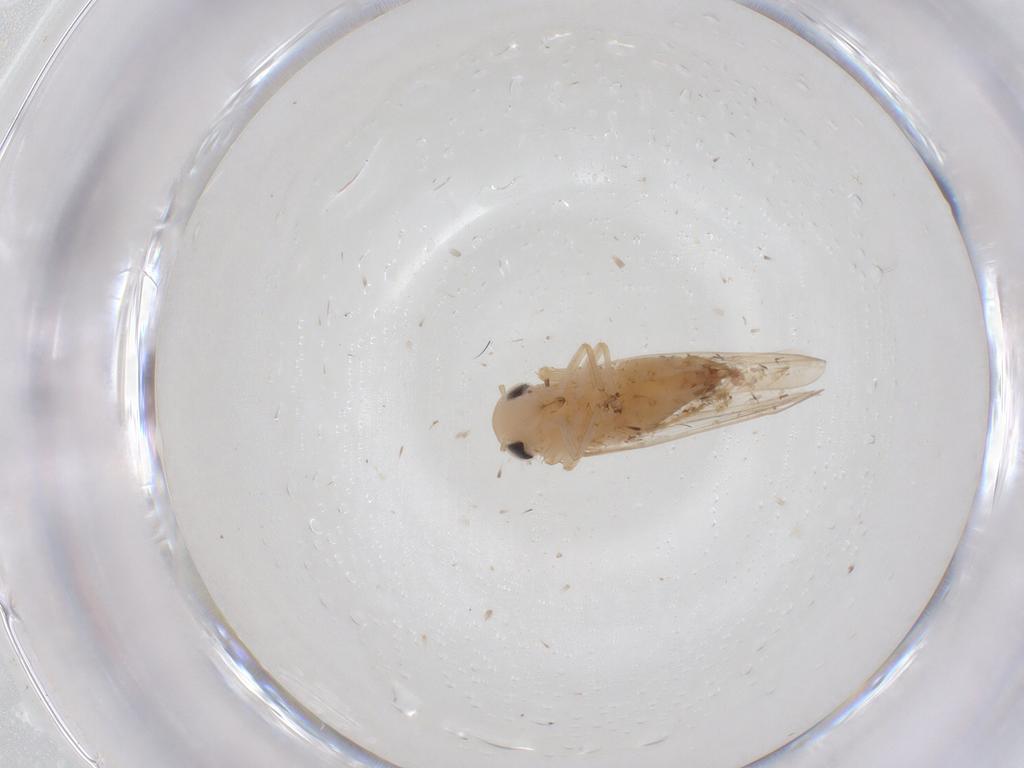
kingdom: Animalia
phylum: Arthropoda
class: Insecta
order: Hemiptera
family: Cicadellidae
